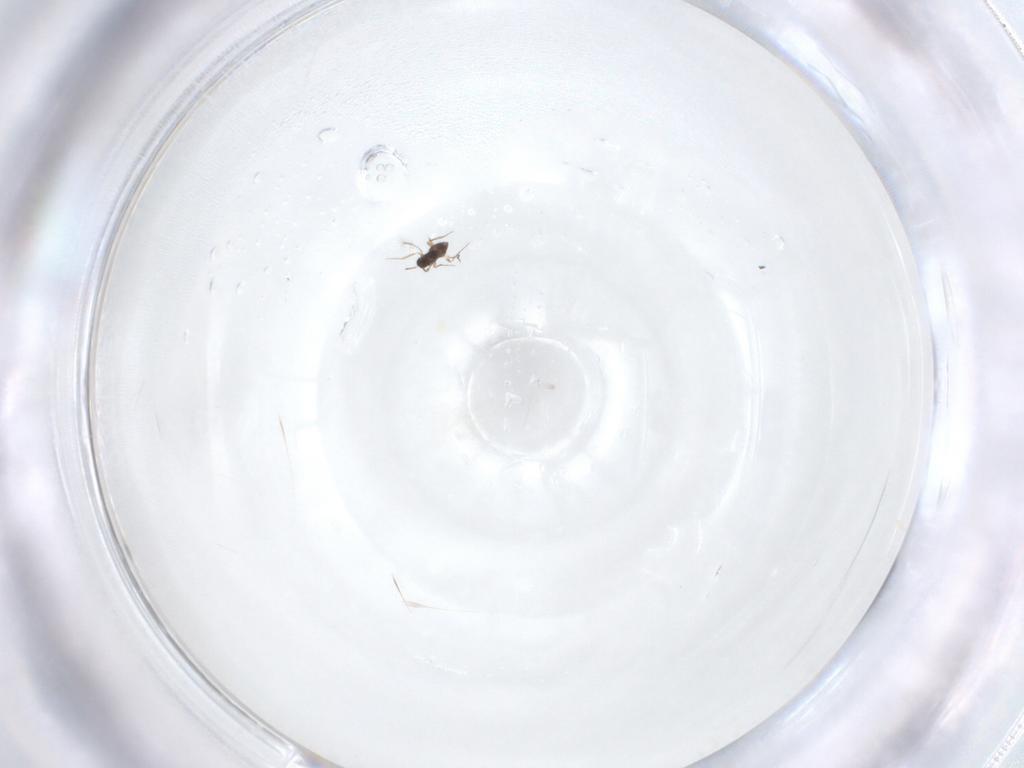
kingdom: Animalia
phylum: Arthropoda
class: Insecta
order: Hymenoptera
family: Mymaridae
